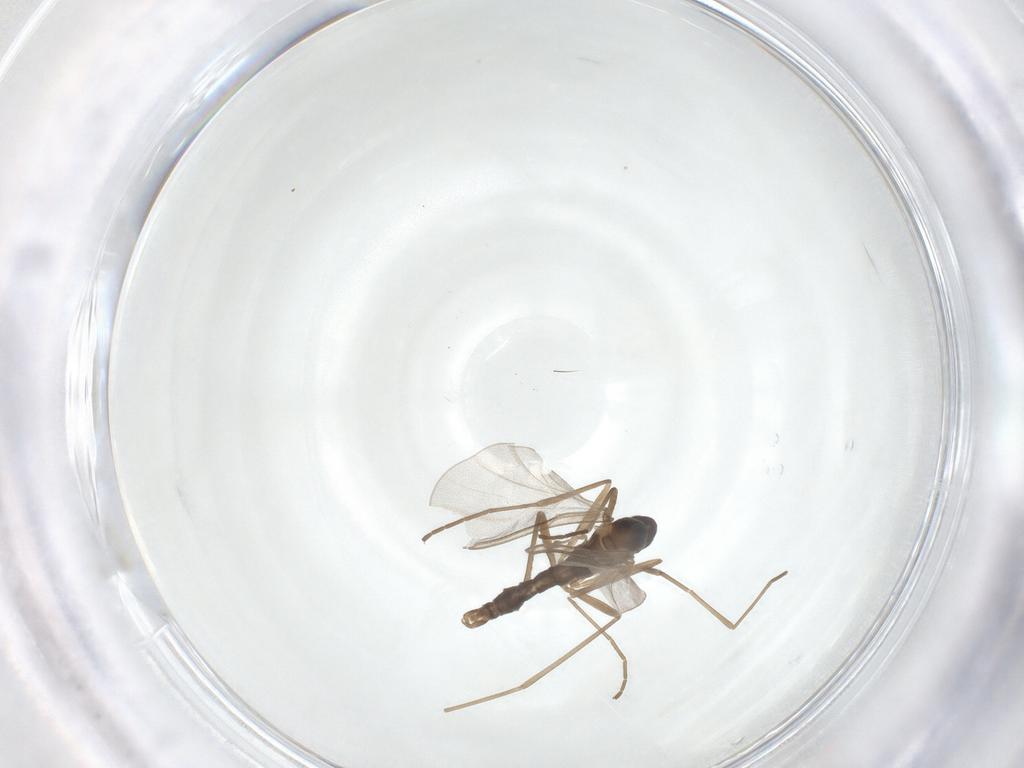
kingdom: Animalia
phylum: Arthropoda
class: Insecta
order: Diptera
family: Cecidomyiidae
